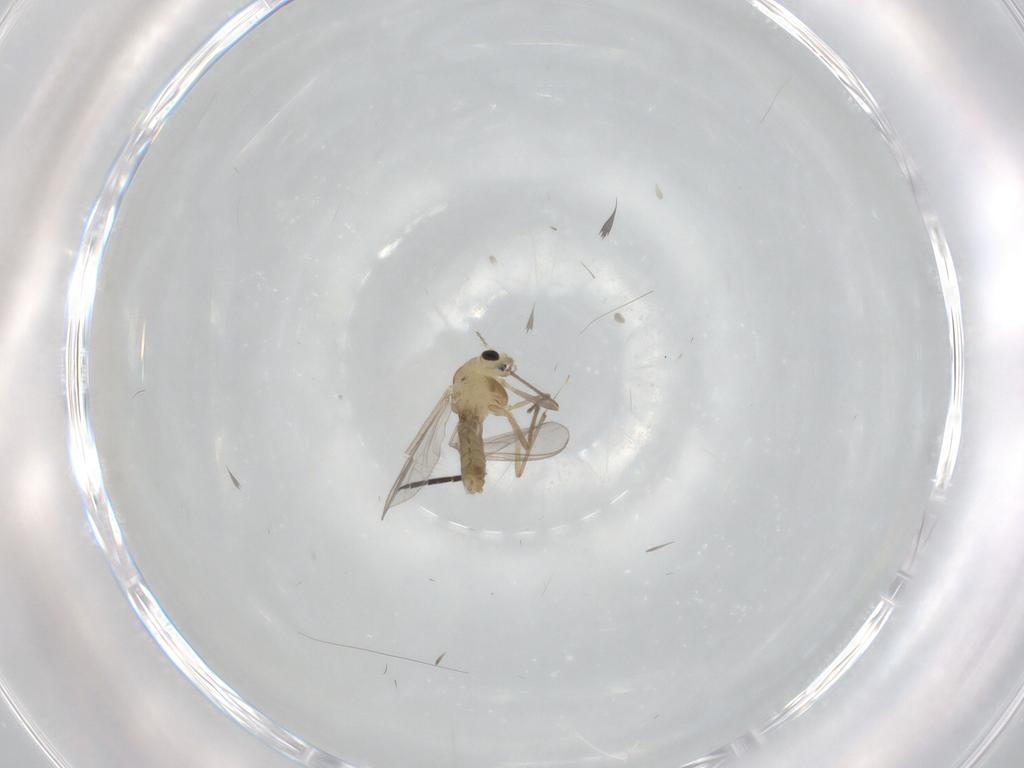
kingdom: Animalia
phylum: Arthropoda
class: Insecta
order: Diptera
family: Chironomidae
